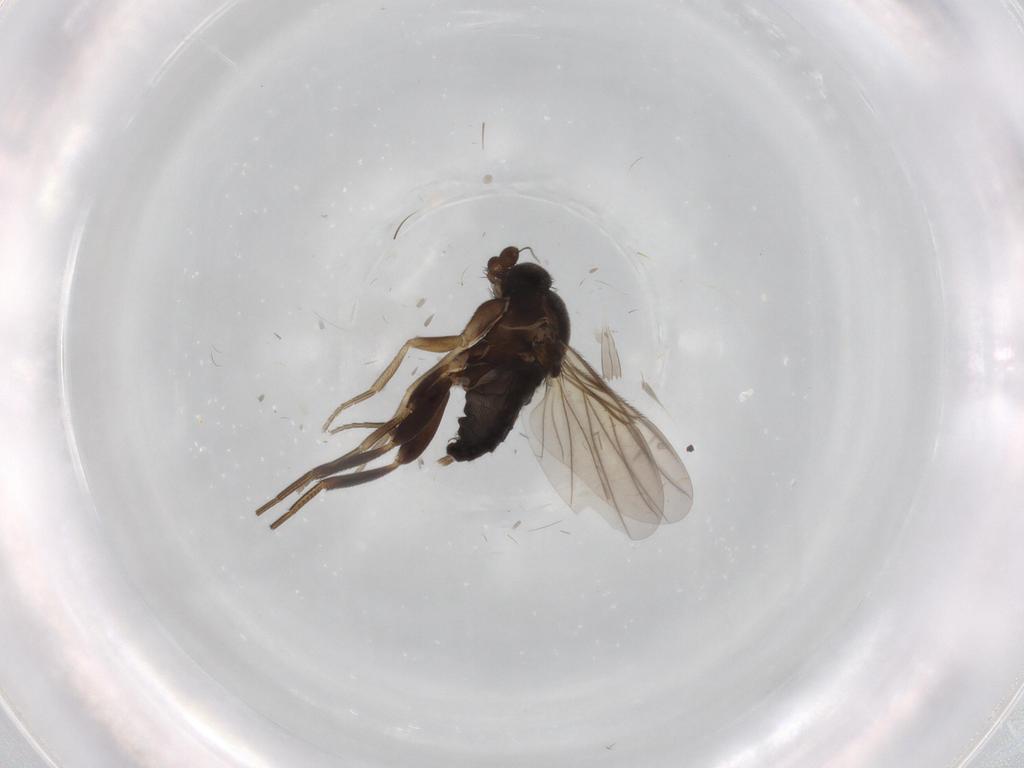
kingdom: Animalia
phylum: Arthropoda
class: Insecta
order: Diptera
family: Phoridae
